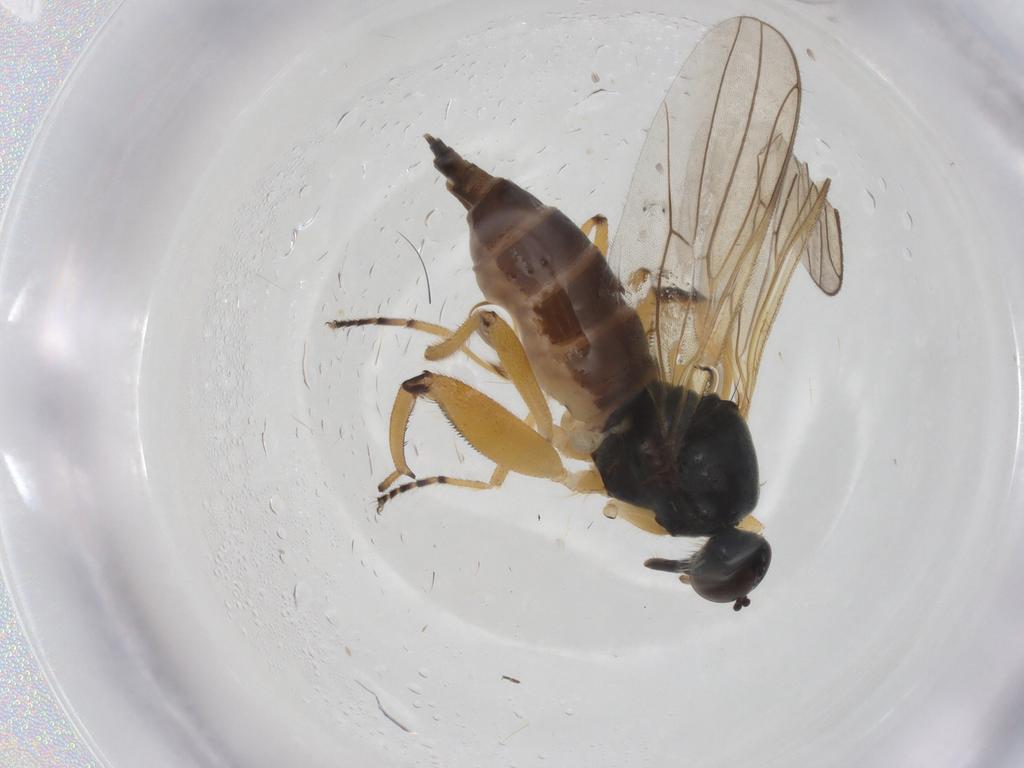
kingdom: Animalia
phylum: Arthropoda
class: Insecta
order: Diptera
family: Hybotidae
